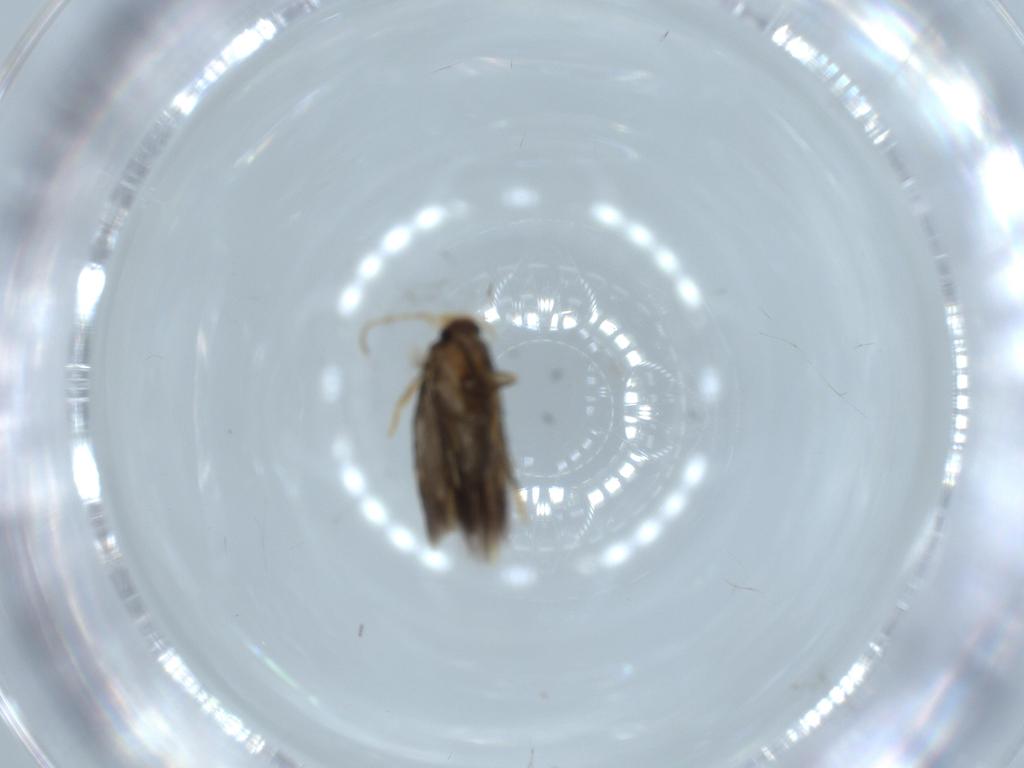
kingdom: Animalia
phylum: Arthropoda
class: Insecta
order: Lepidoptera
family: Nepticulidae
